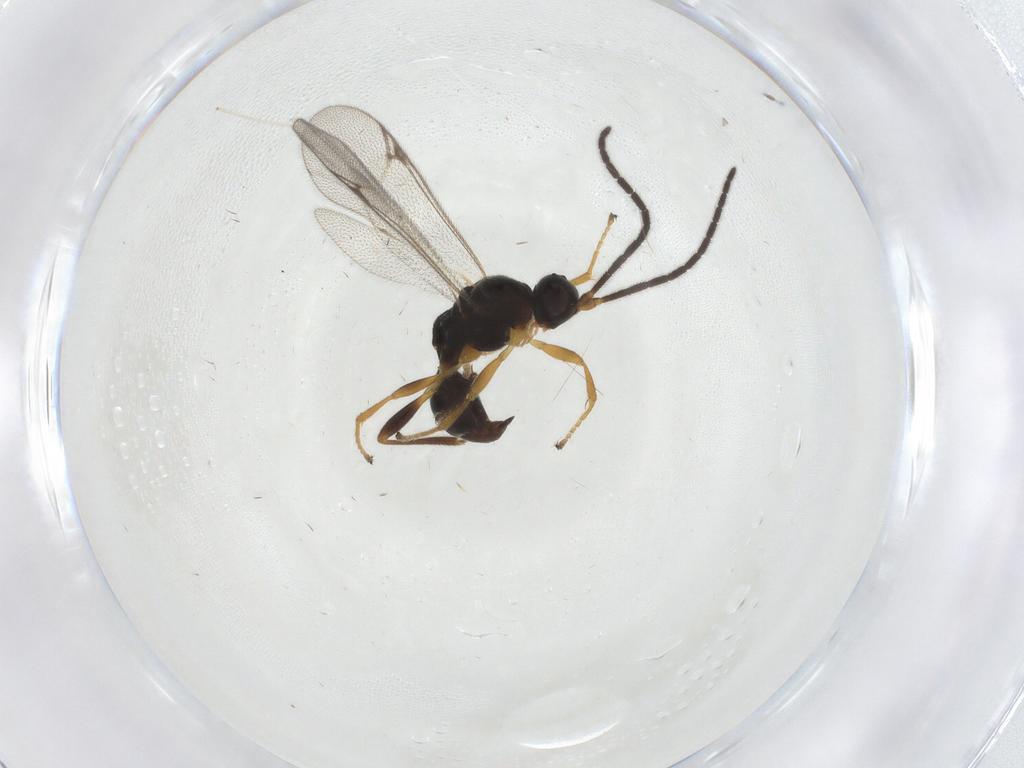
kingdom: Animalia
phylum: Arthropoda
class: Insecta
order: Hymenoptera
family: Proctotrupidae
